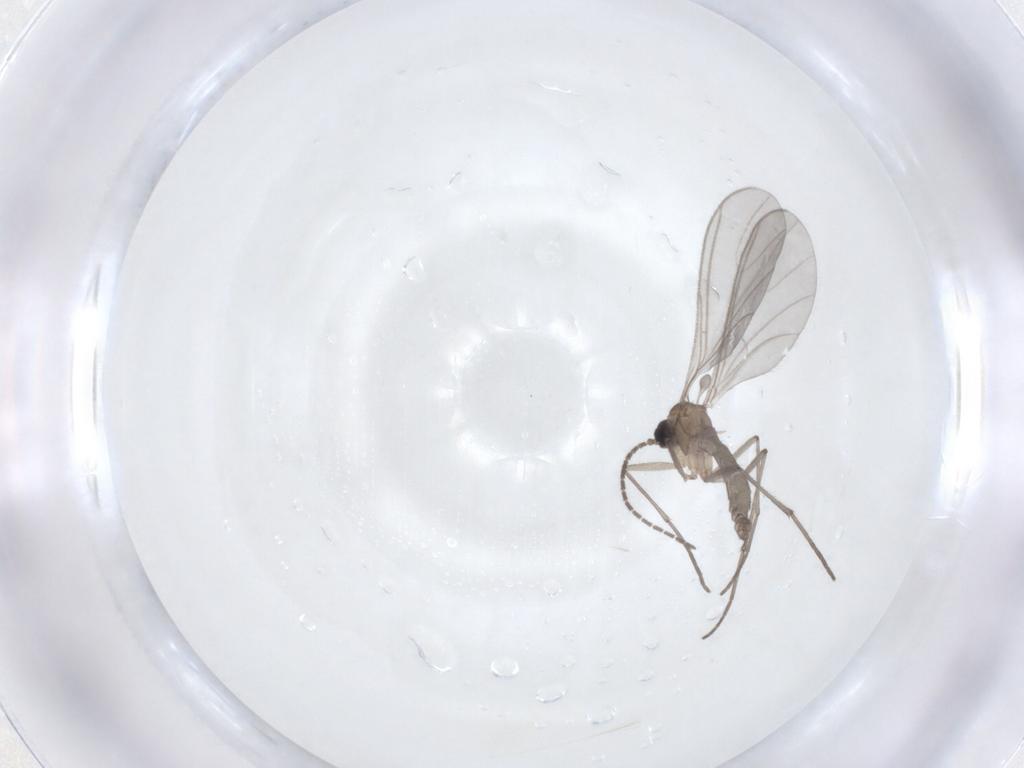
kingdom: Animalia
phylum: Arthropoda
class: Insecta
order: Diptera
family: Sciaridae
